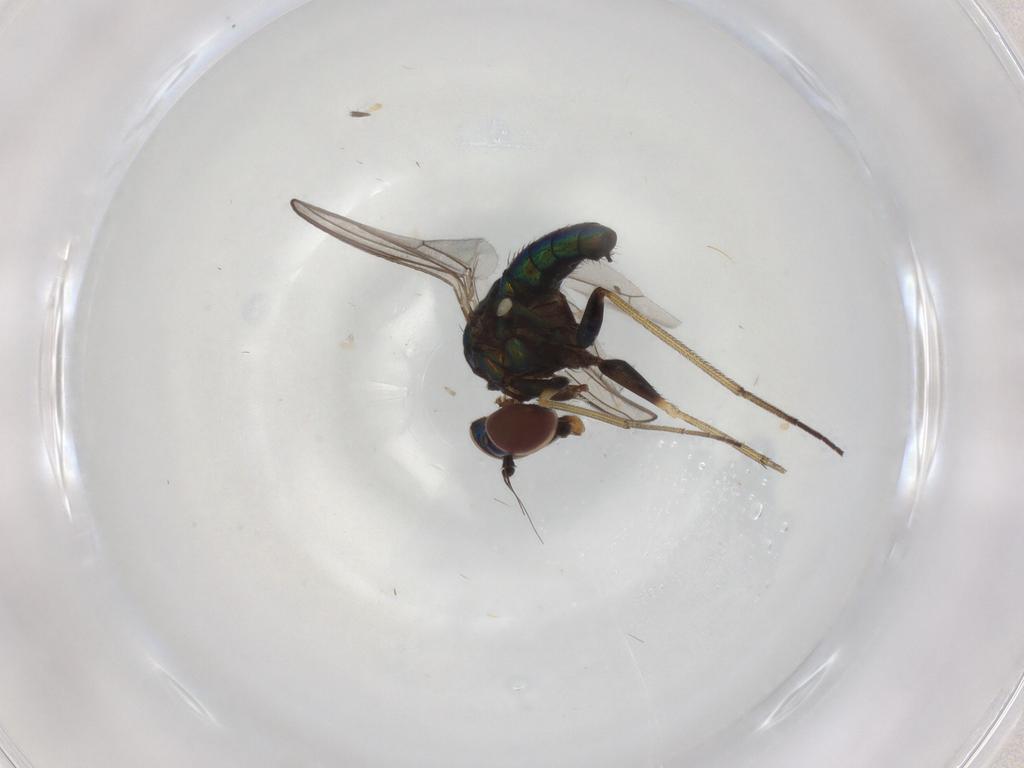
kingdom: Animalia
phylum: Arthropoda
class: Insecta
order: Diptera
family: Dolichopodidae
